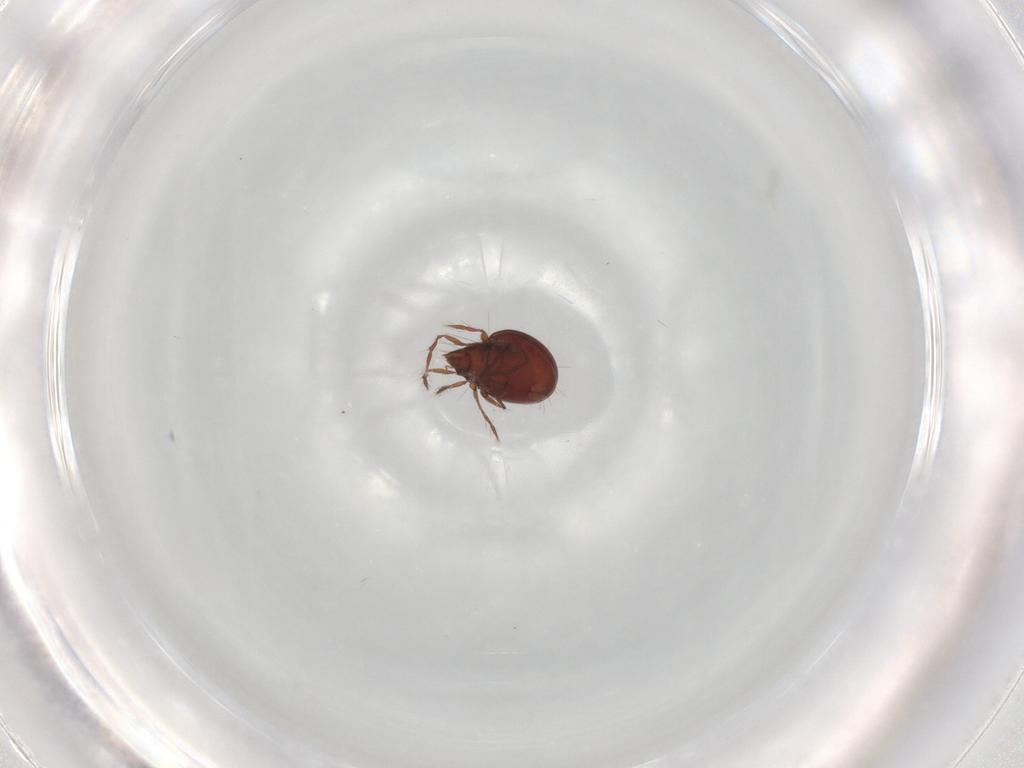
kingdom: Animalia
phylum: Arthropoda
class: Arachnida
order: Sarcoptiformes
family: Ceratoppiidae
